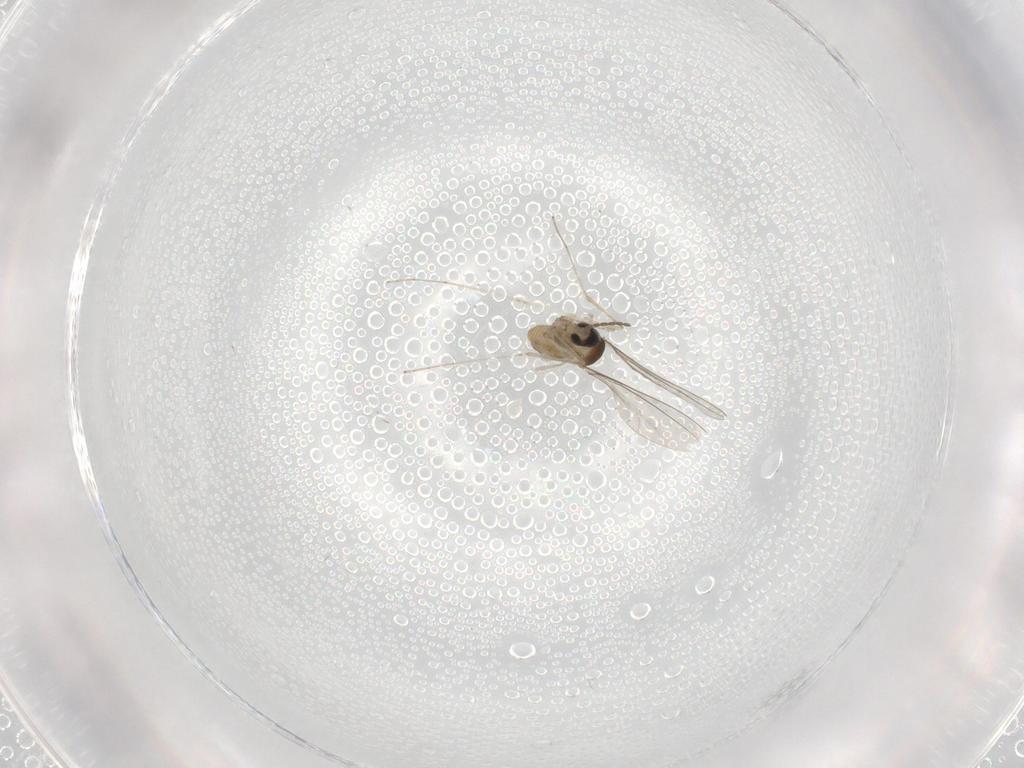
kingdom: Animalia
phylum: Arthropoda
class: Insecta
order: Diptera
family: Cecidomyiidae
